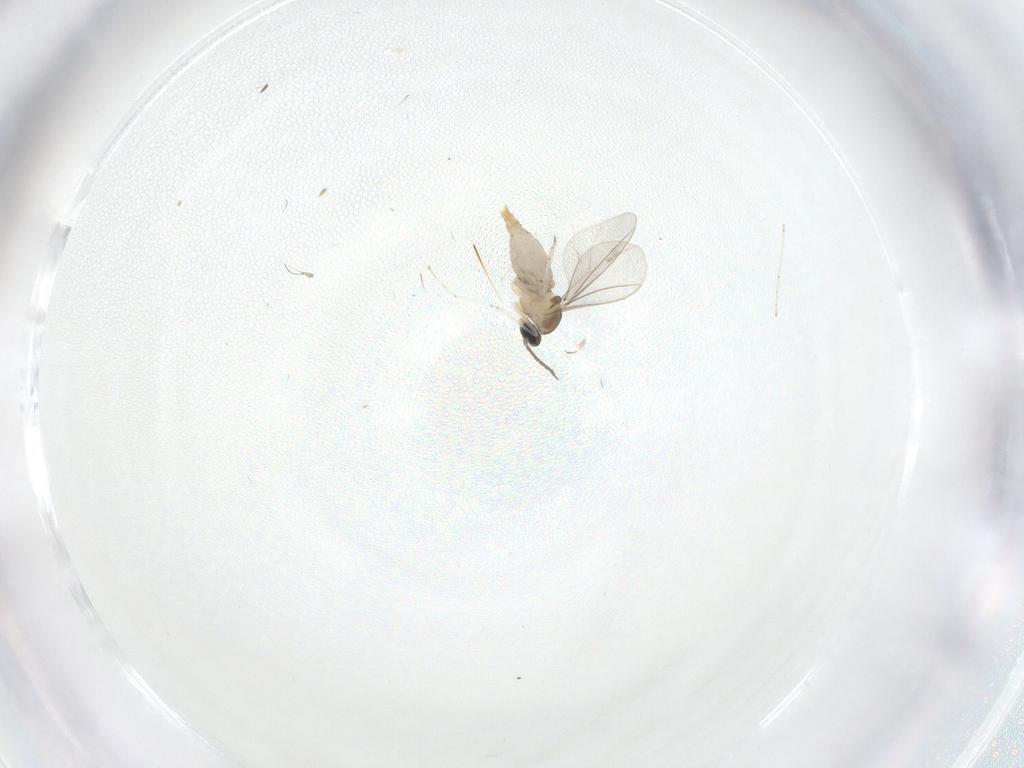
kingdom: Animalia
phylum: Arthropoda
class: Insecta
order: Diptera
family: Cecidomyiidae
